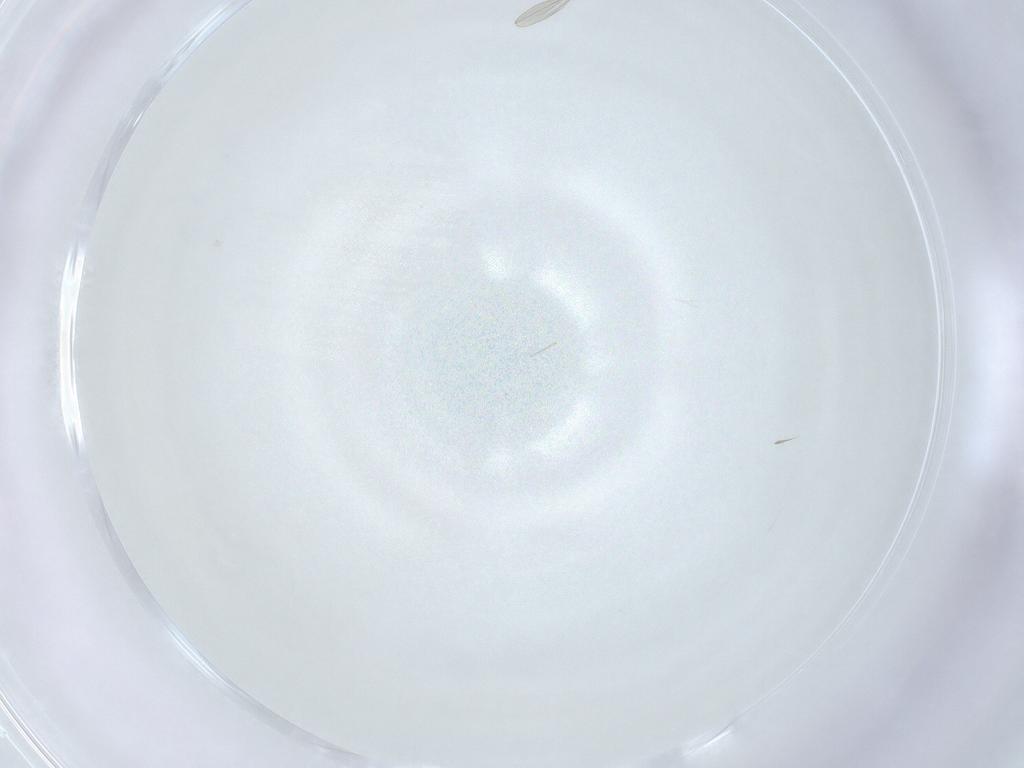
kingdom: Animalia
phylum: Arthropoda
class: Insecta
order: Diptera
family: Cecidomyiidae
